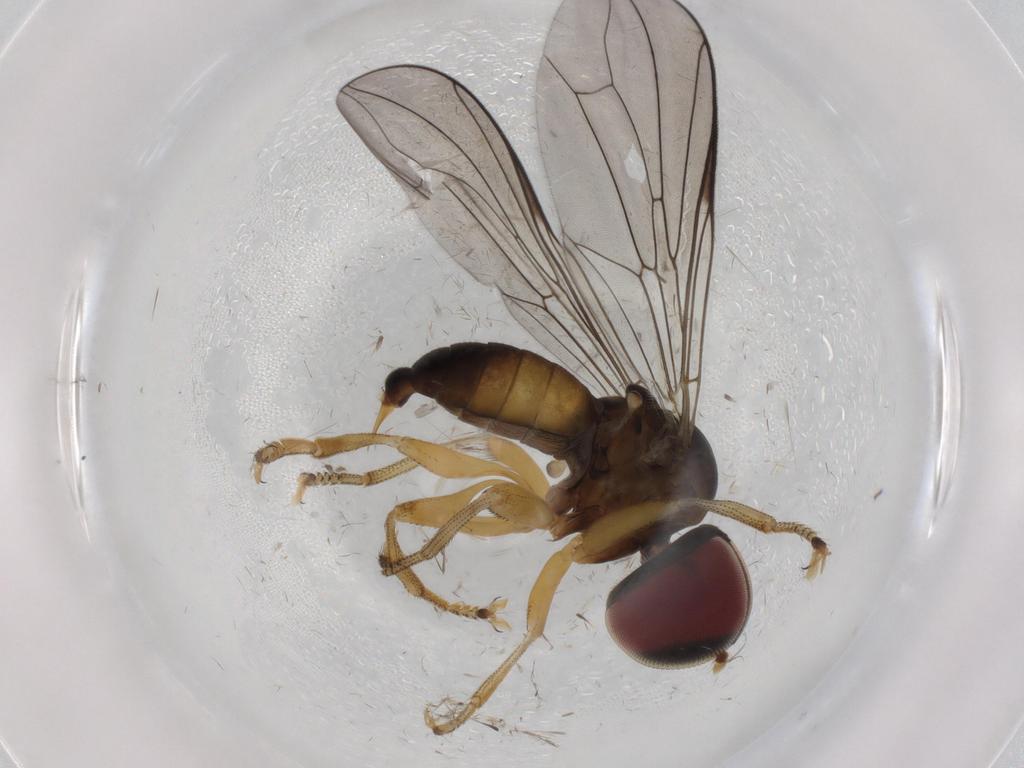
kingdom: Animalia
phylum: Arthropoda
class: Insecta
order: Diptera
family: Pipunculidae
